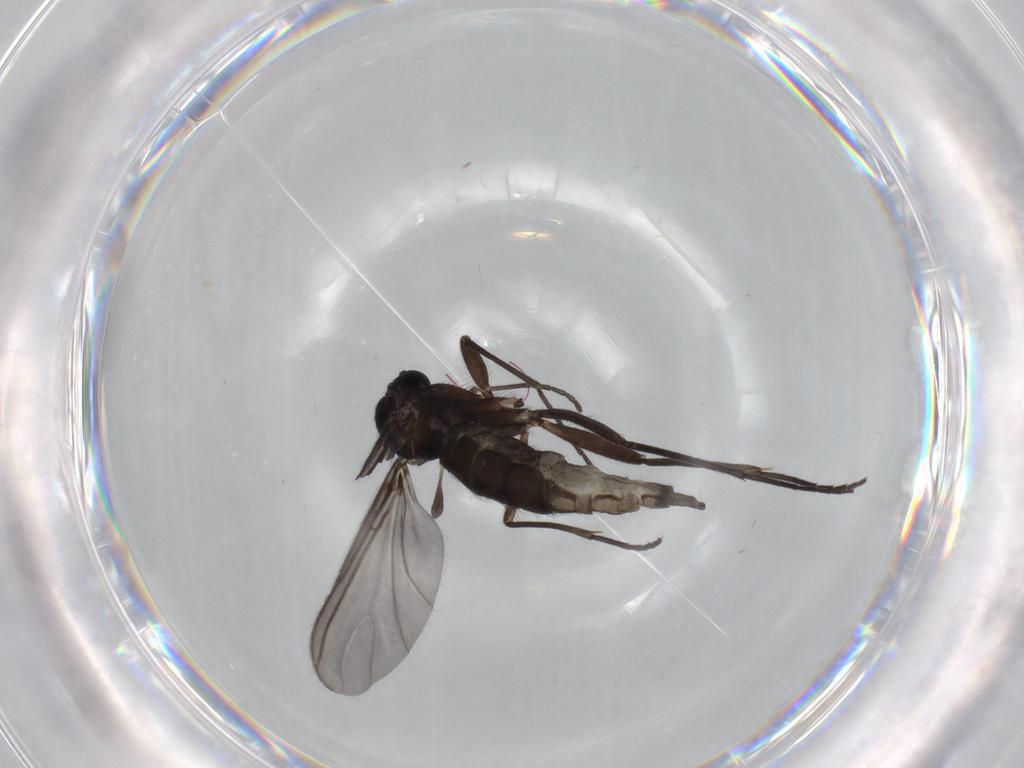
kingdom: Animalia
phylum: Arthropoda
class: Insecta
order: Diptera
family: Sciaridae
